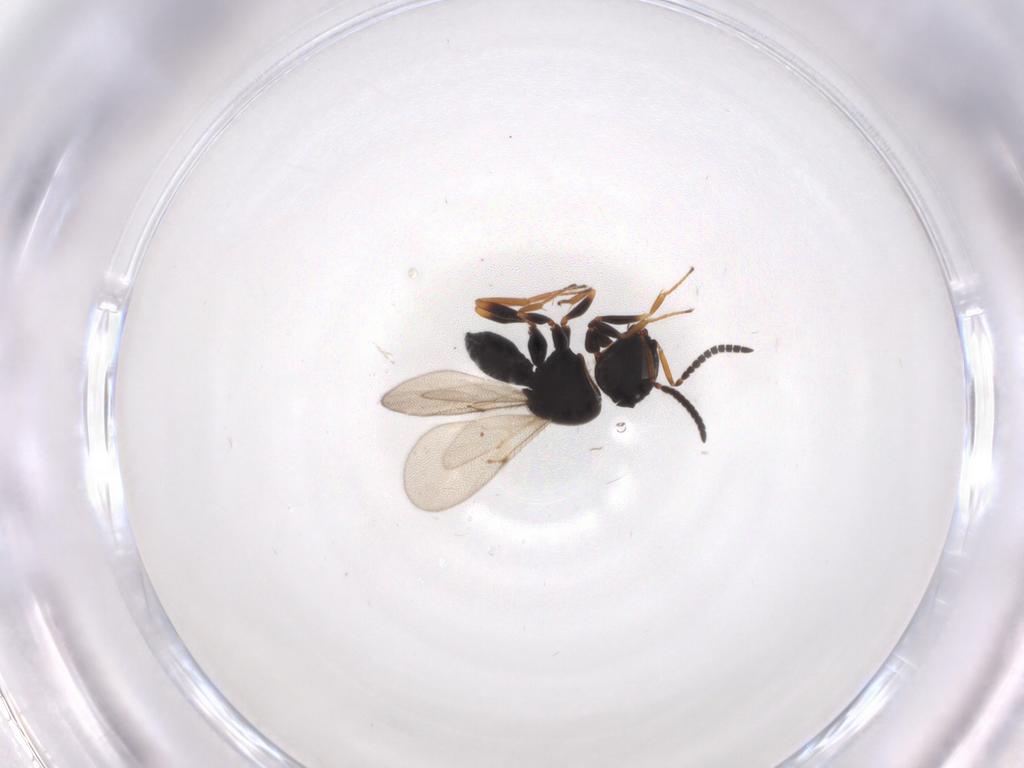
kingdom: Animalia
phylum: Arthropoda
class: Insecta
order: Hymenoptera
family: Scelionidae
